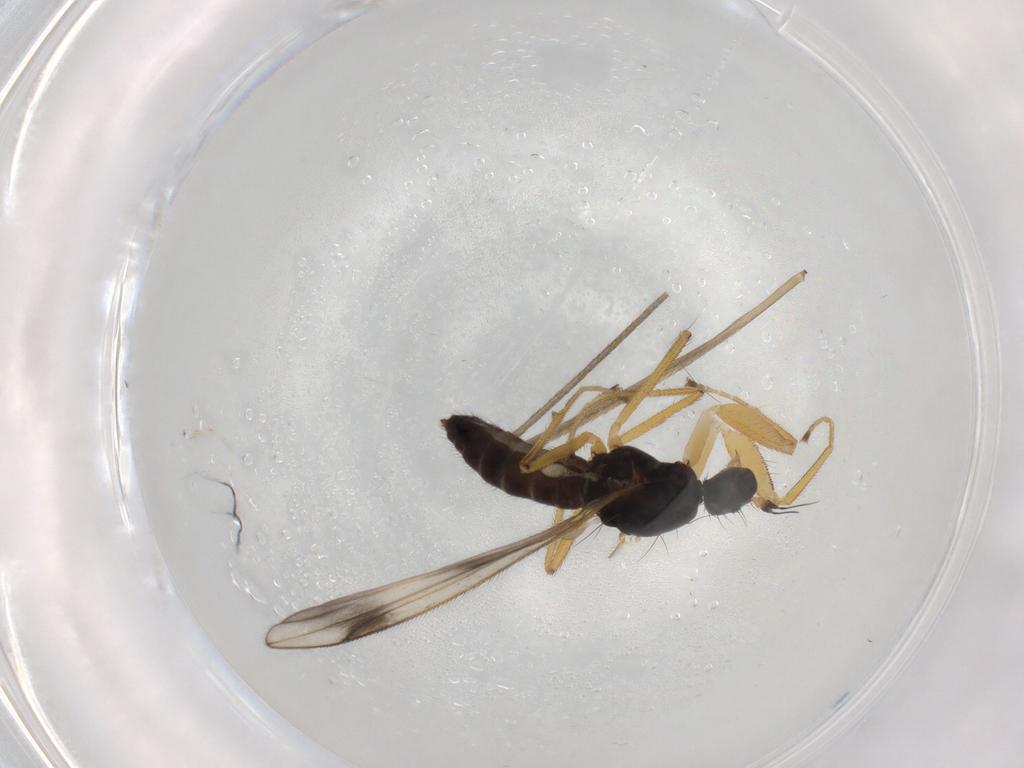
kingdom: Animalia
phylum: Arthropoda
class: Insecta
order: Diptera
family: Limoniidae
